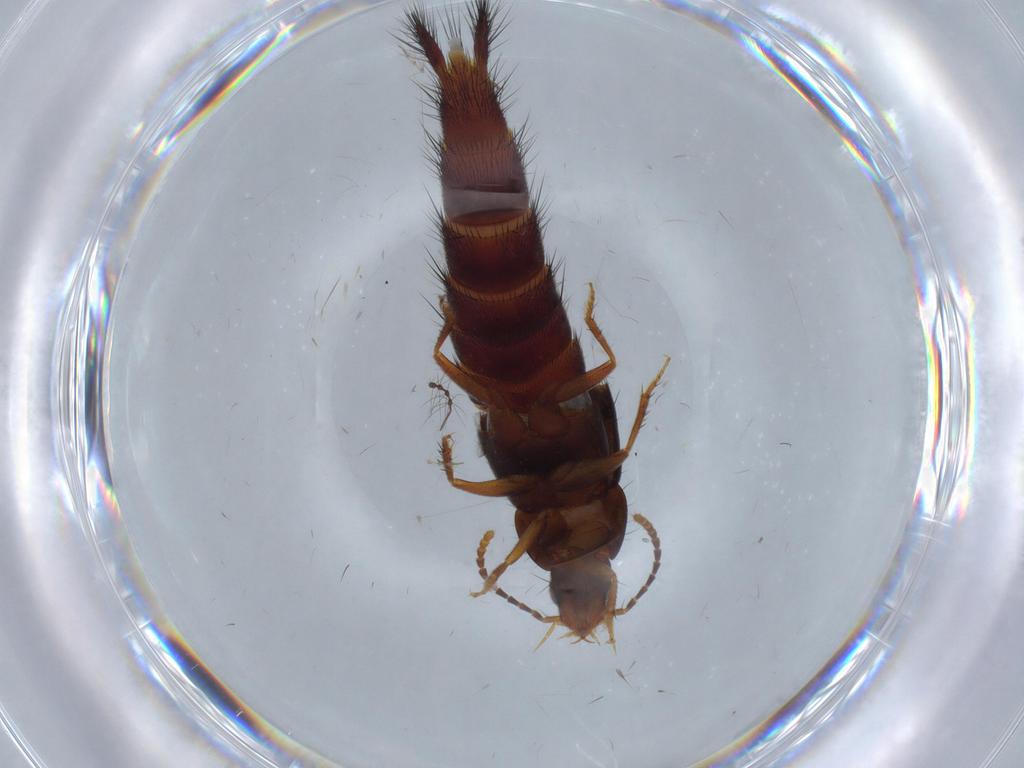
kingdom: Animalia
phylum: Arthropoda
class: Insecta
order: Coleoptera
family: Staphylinidae
